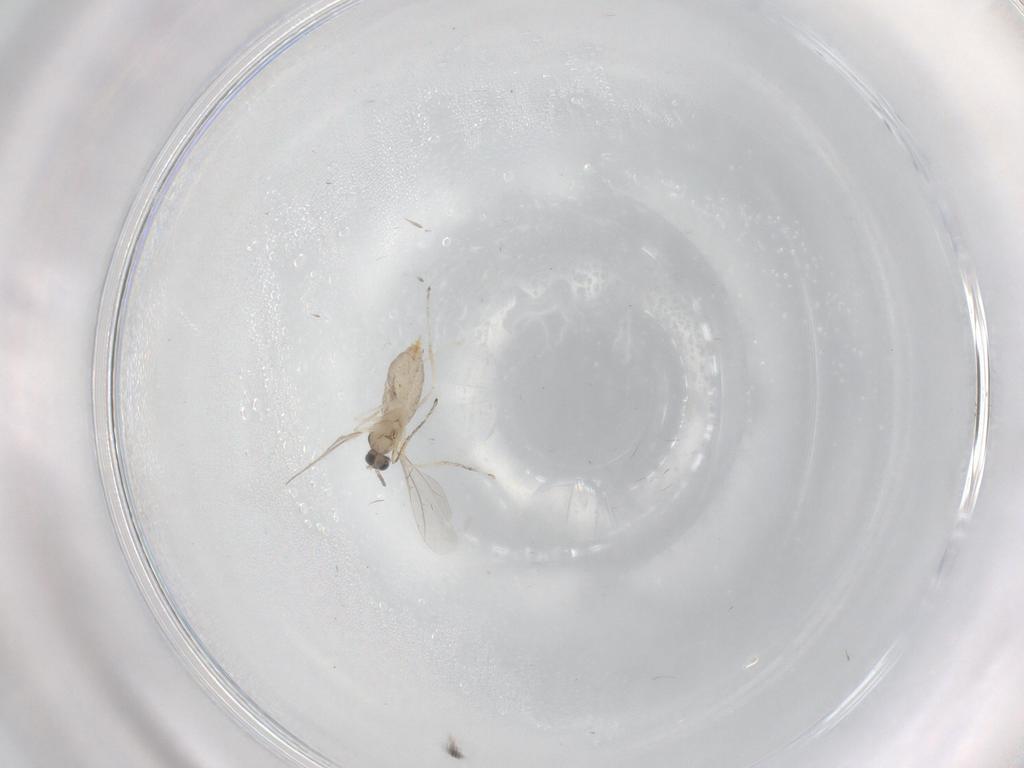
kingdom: Animalia
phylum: Arthropoda
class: Insecta
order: Diptera
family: Cecidomyiidae
